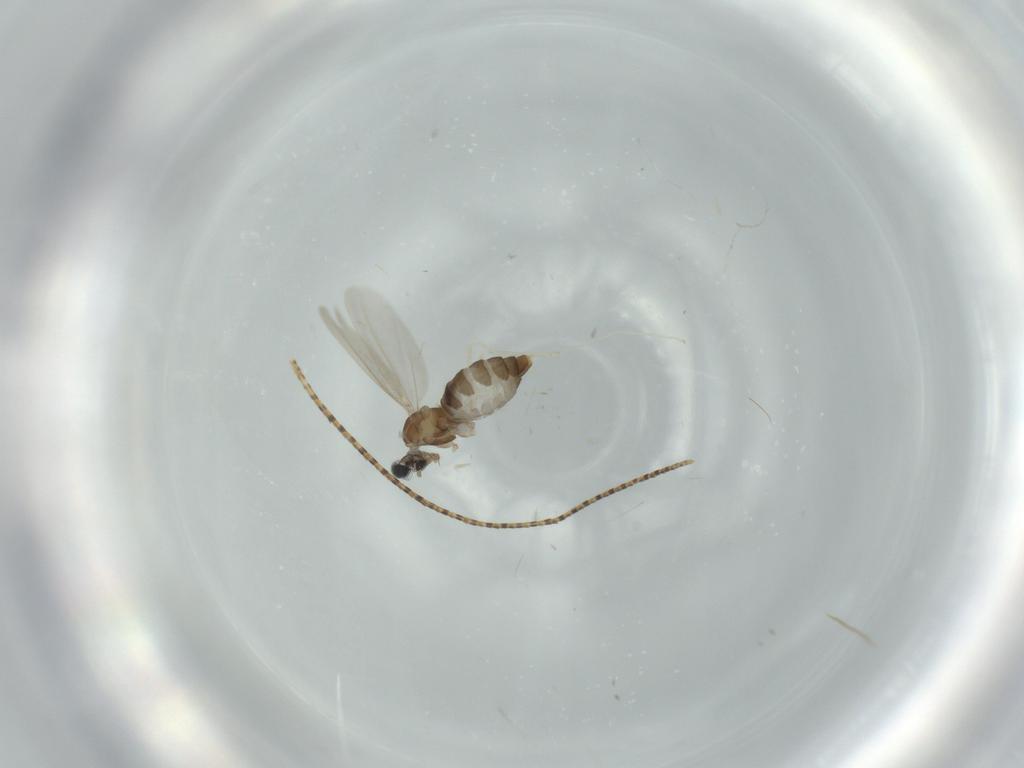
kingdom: Animalia
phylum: Arthropoda
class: Insecta
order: Diptera
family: Cecidomyiidae
